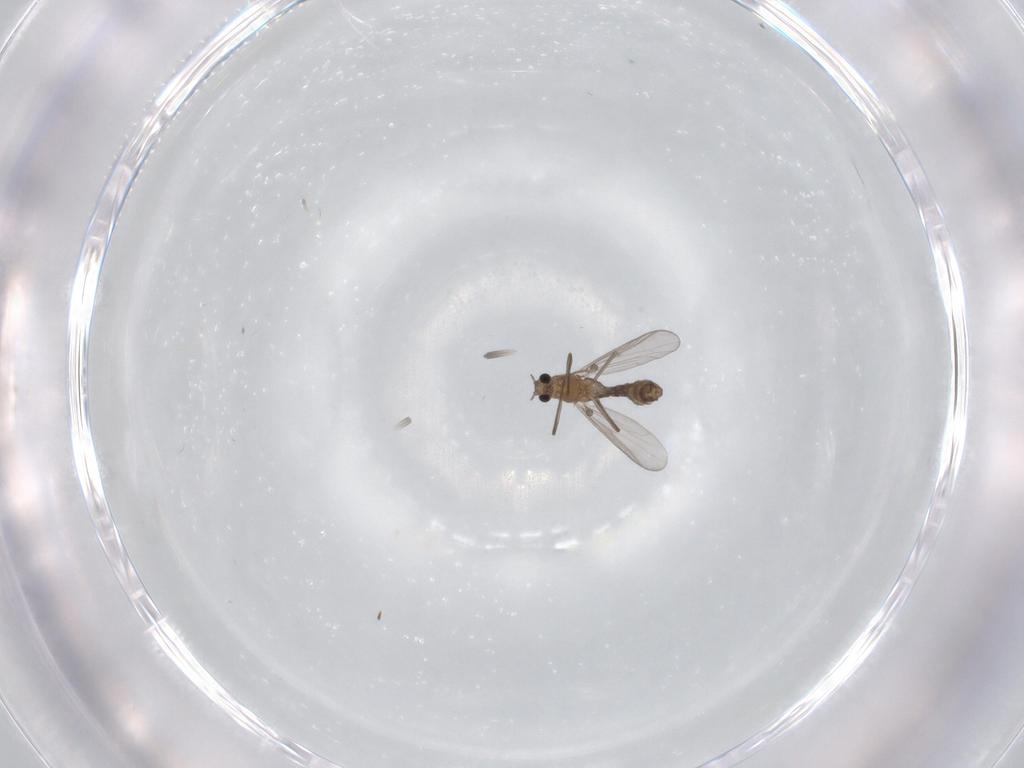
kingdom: Animalia
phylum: Arthropoda
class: Insecta
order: Diptera
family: Chironomidae
